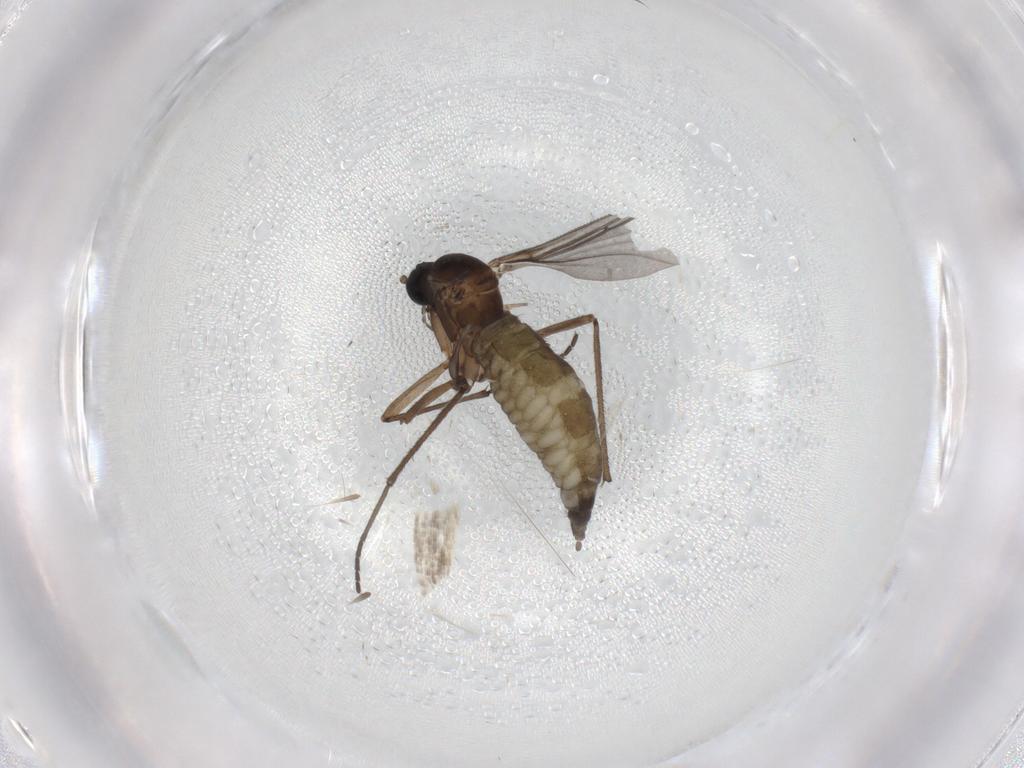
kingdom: Animalia
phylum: Arthropoda
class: Insecta
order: Diptera
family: Sciaridae
